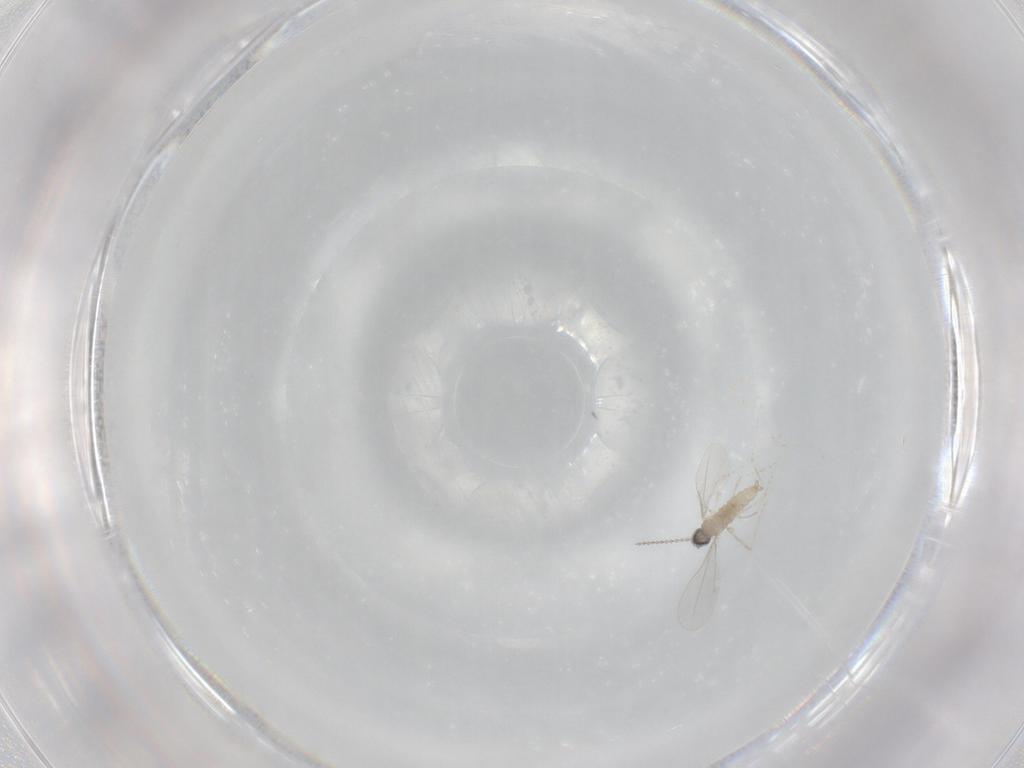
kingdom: Animalia
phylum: Arthropoda
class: Insecta
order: Diptera
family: Cecidomyiidae
